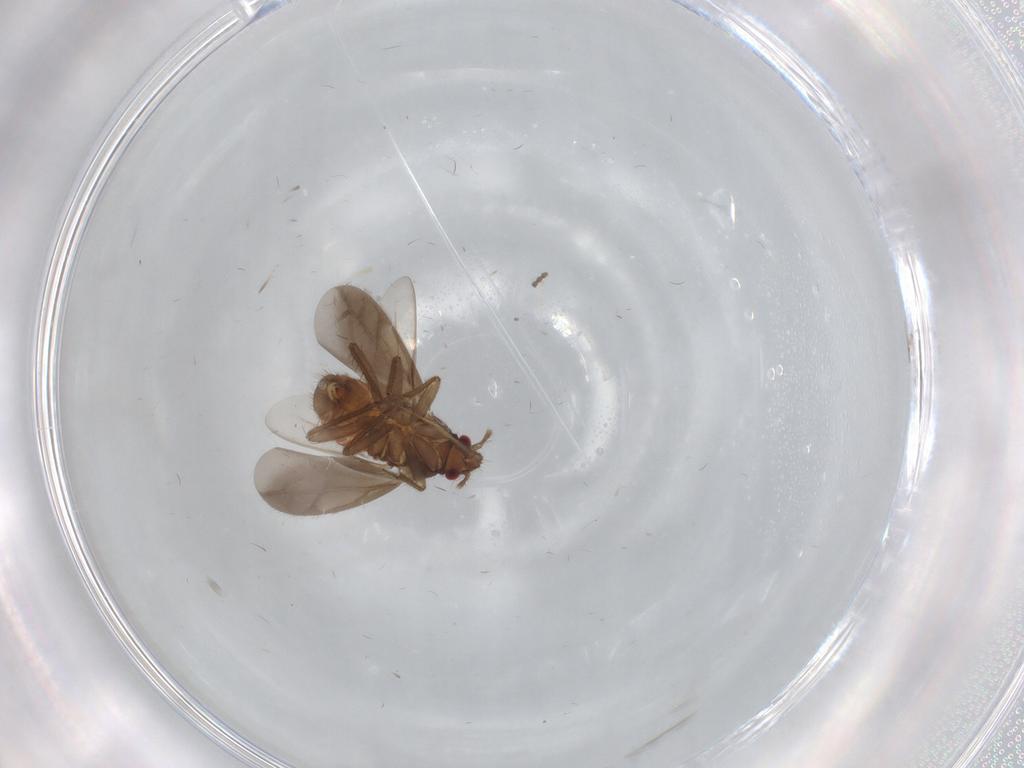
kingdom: Animalia
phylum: Arthropoda
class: Insecta
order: Hemiptera
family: Ceratocombidae
